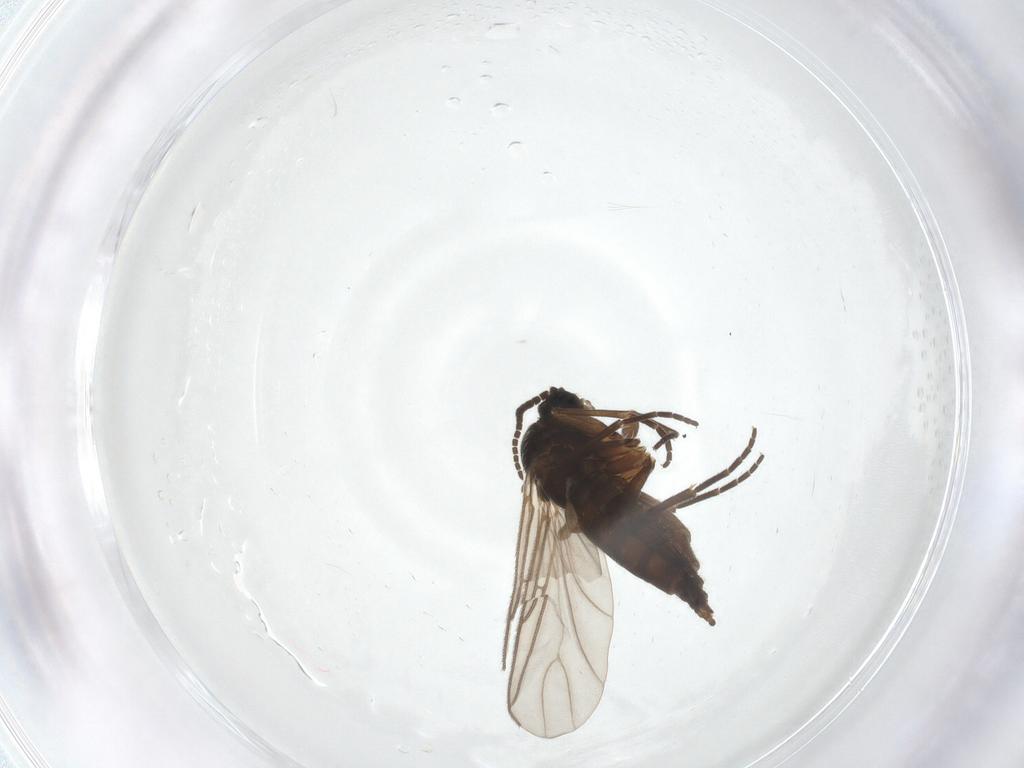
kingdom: Animalia
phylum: Arthropoda
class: Insecta
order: Diptera
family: Sciaridae
